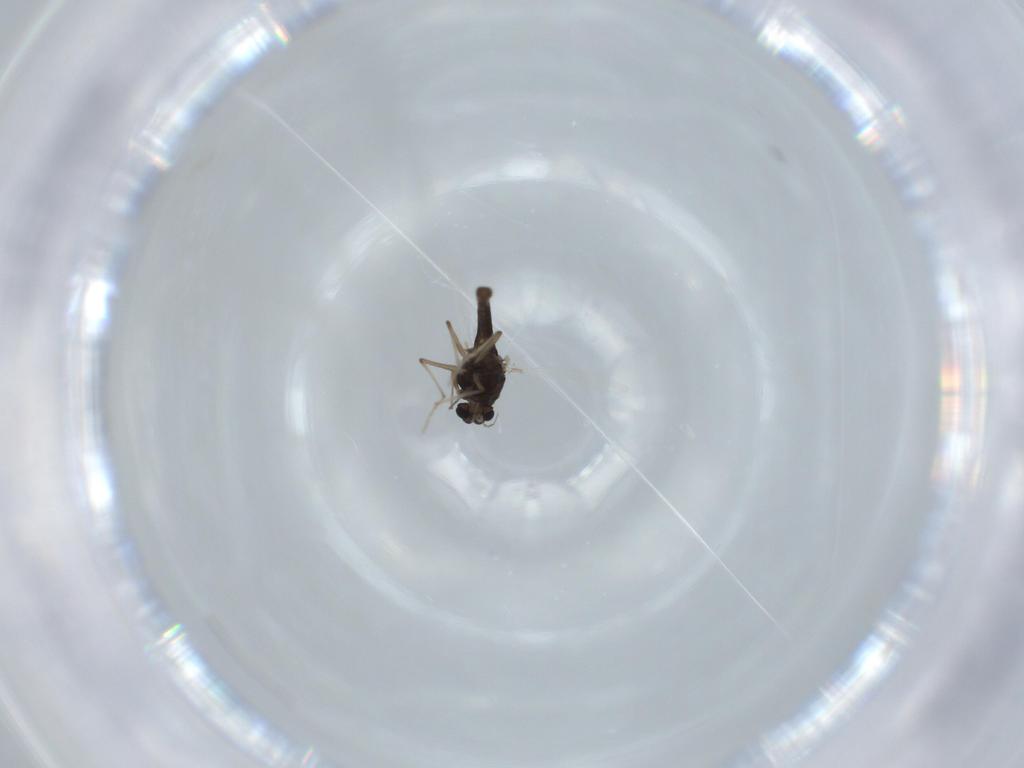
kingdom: Animalia
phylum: Arthropoda
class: Insecta
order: Diptera
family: Chironomidae
